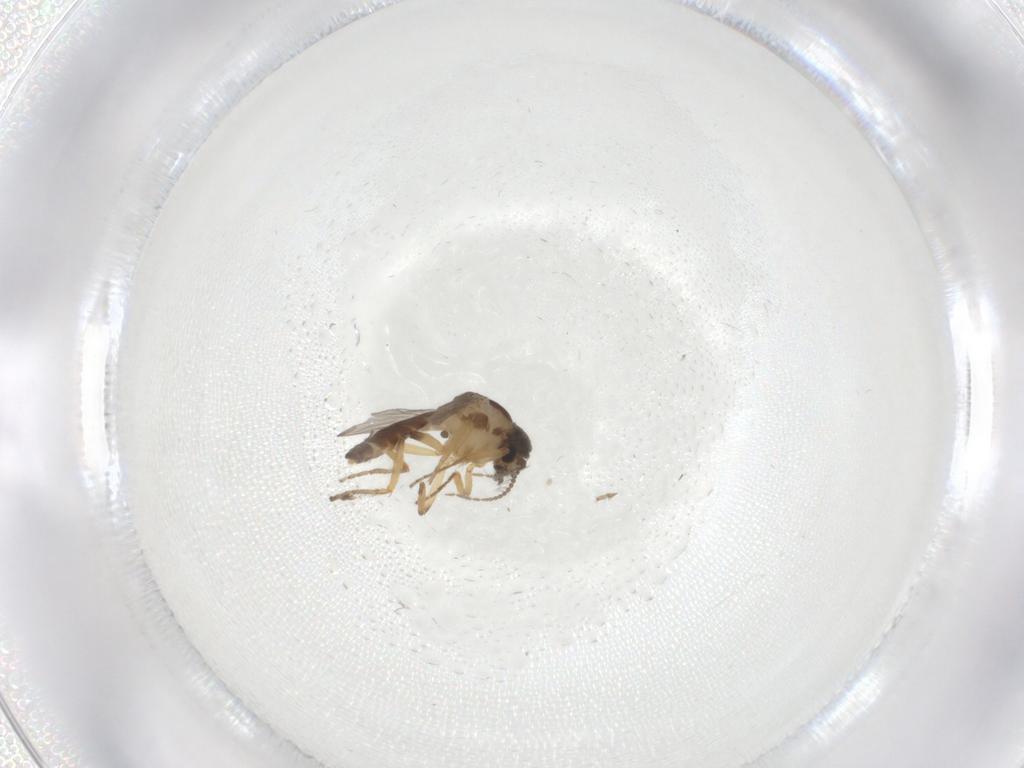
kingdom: Animalia
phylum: Arthropoda
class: Insecta
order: Diptera
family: Ceratopogonidae
